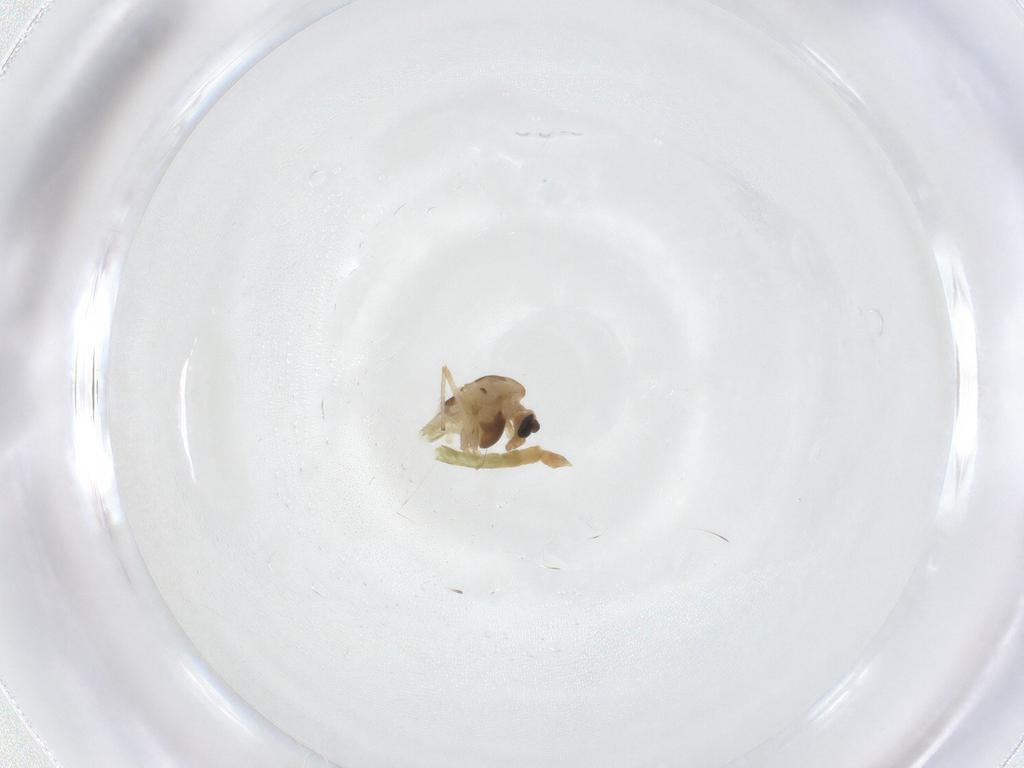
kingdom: Animalia
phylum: Arthropoda
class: Insecta
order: Diptera
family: Chironomidae
